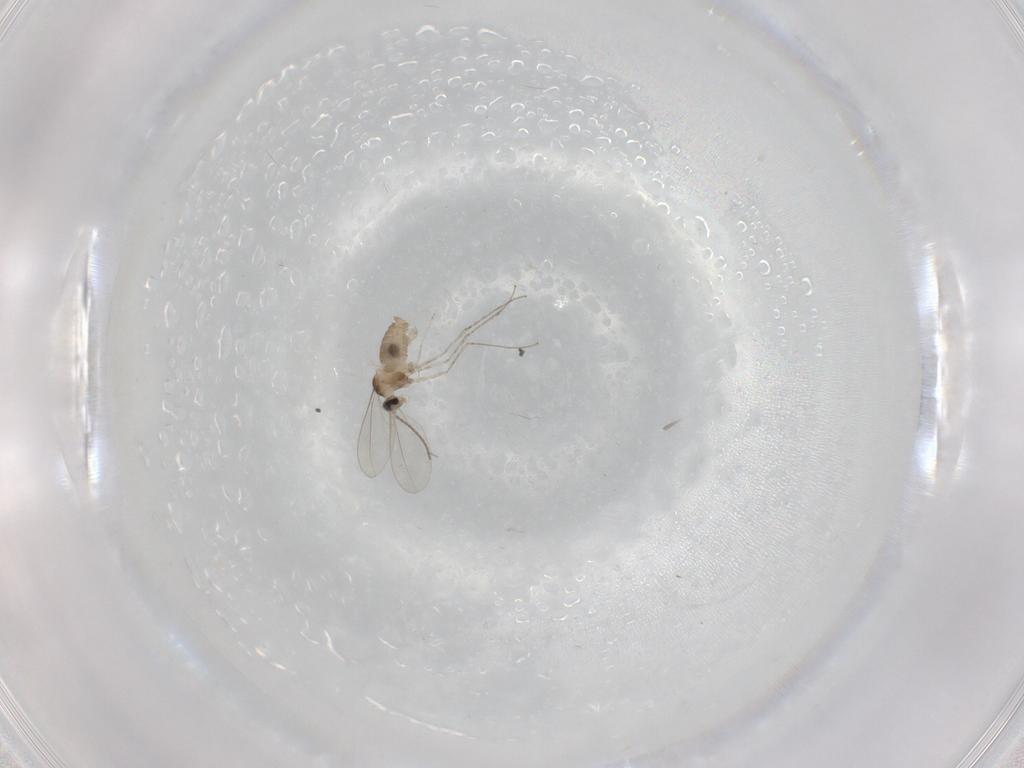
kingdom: Animalia
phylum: Arthropoda
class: Insecta
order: Diptera
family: Cecidomyiidae
